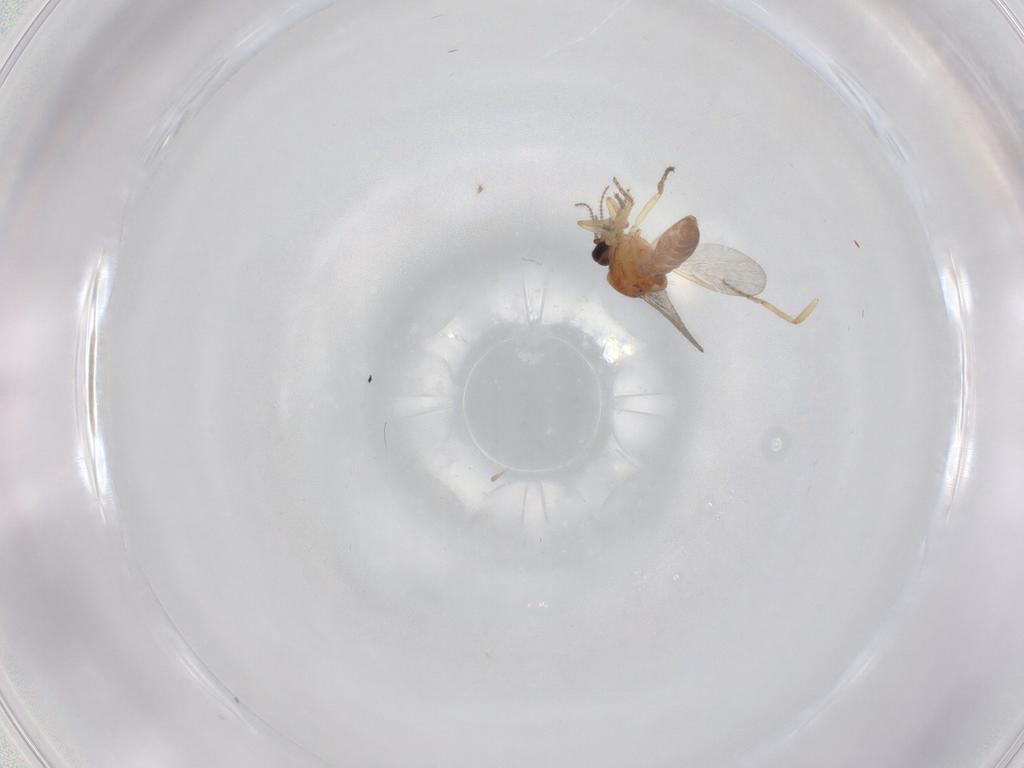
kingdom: Animalia
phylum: Arthropoda
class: Insecta
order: Diptera
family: Ceratopogonidae
